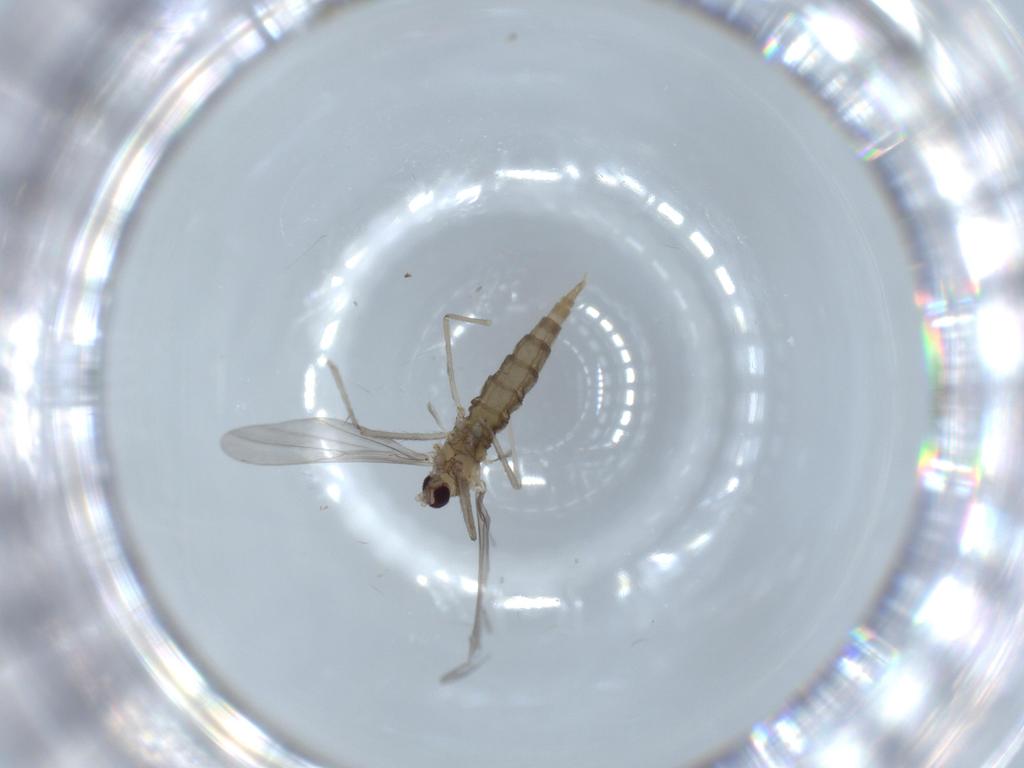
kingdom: Animalia
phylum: Arthropoda
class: Insecta
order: Diptera
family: Cecidomyiidae
